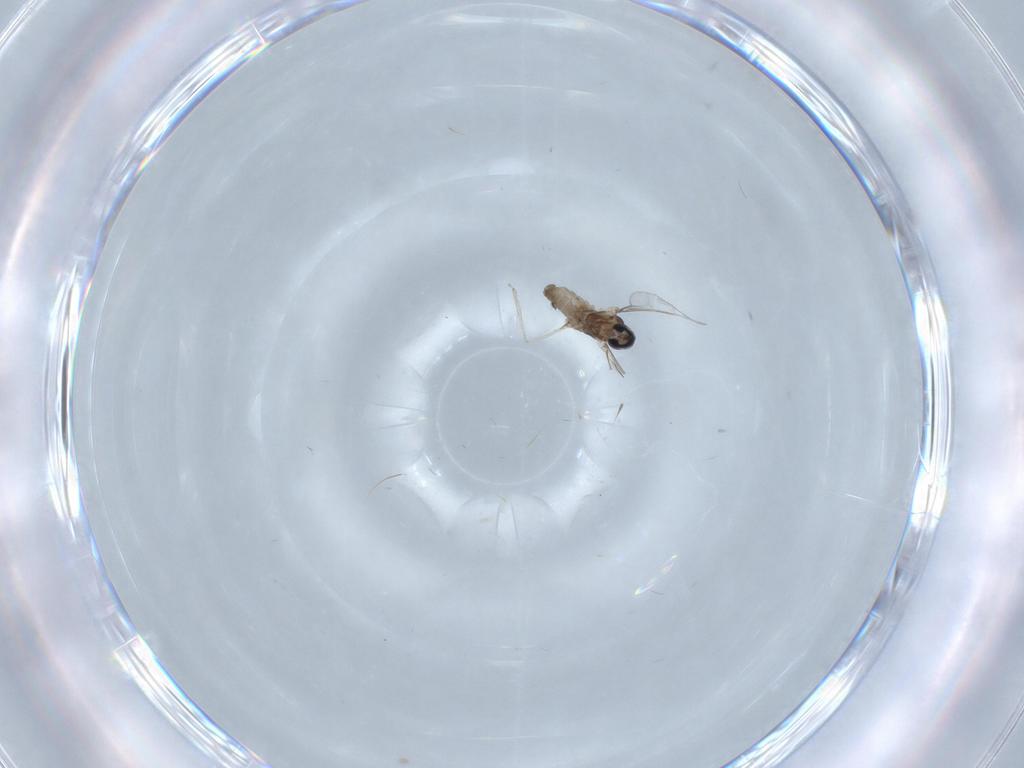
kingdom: Animalia
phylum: Arthropoda
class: Insecta
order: Diptera
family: Cecidomyiidae
